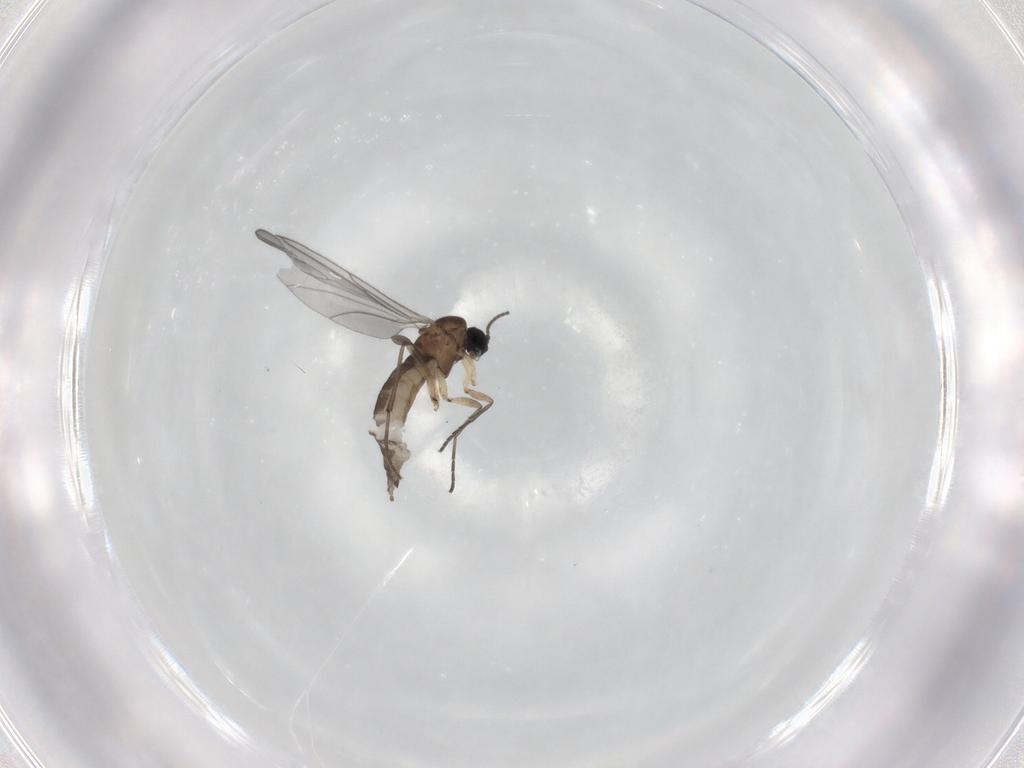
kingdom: Animalia
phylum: Arthropoda
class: Insecta
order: Diptera
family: Sciaridae
